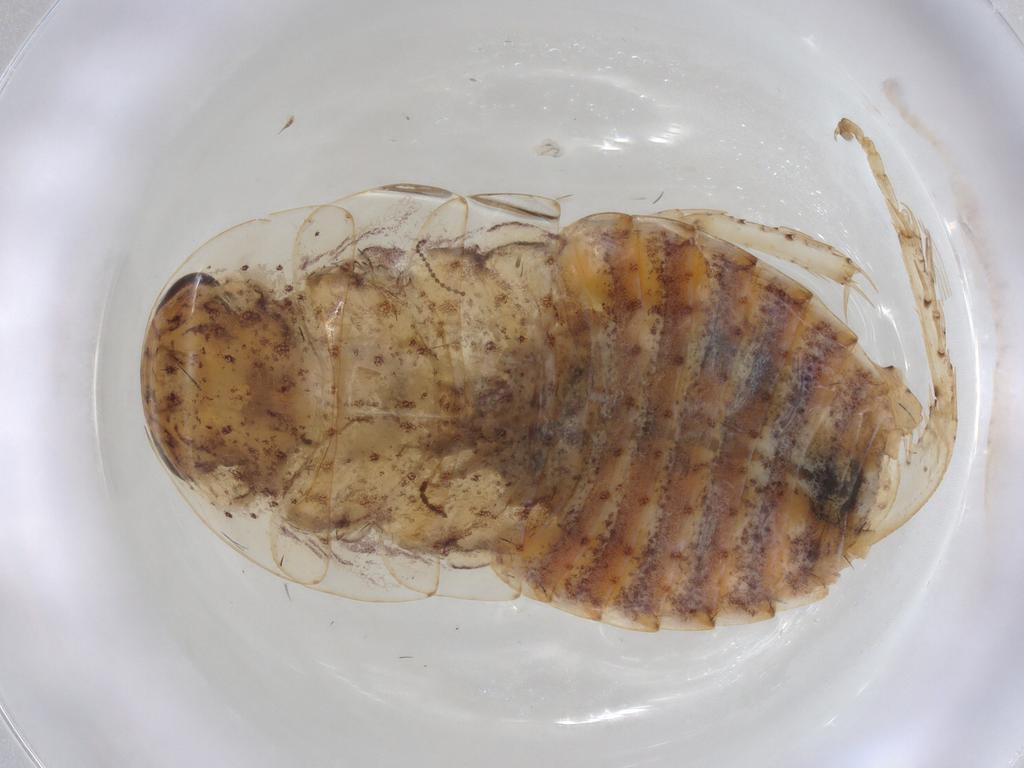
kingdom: Animalia
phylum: Arthropoda
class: Insecta
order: Blattodea
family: Blaberidae
